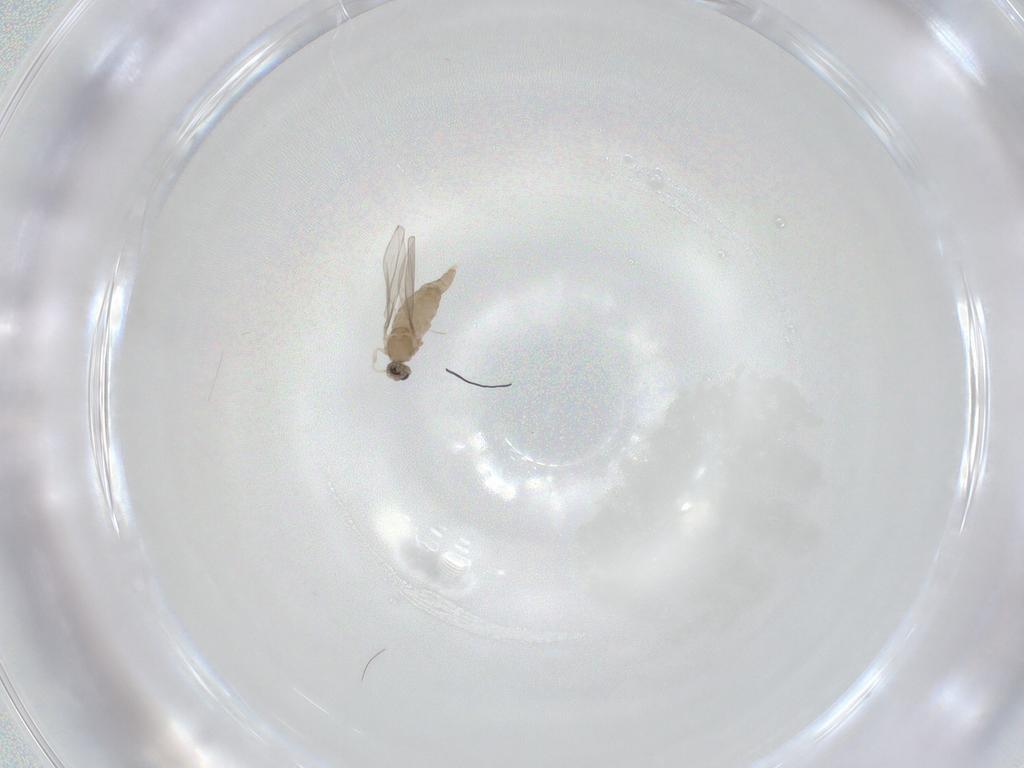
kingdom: Animalia
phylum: Arthropoda
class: Insecta
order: Diptera
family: Cecidomyiidae
